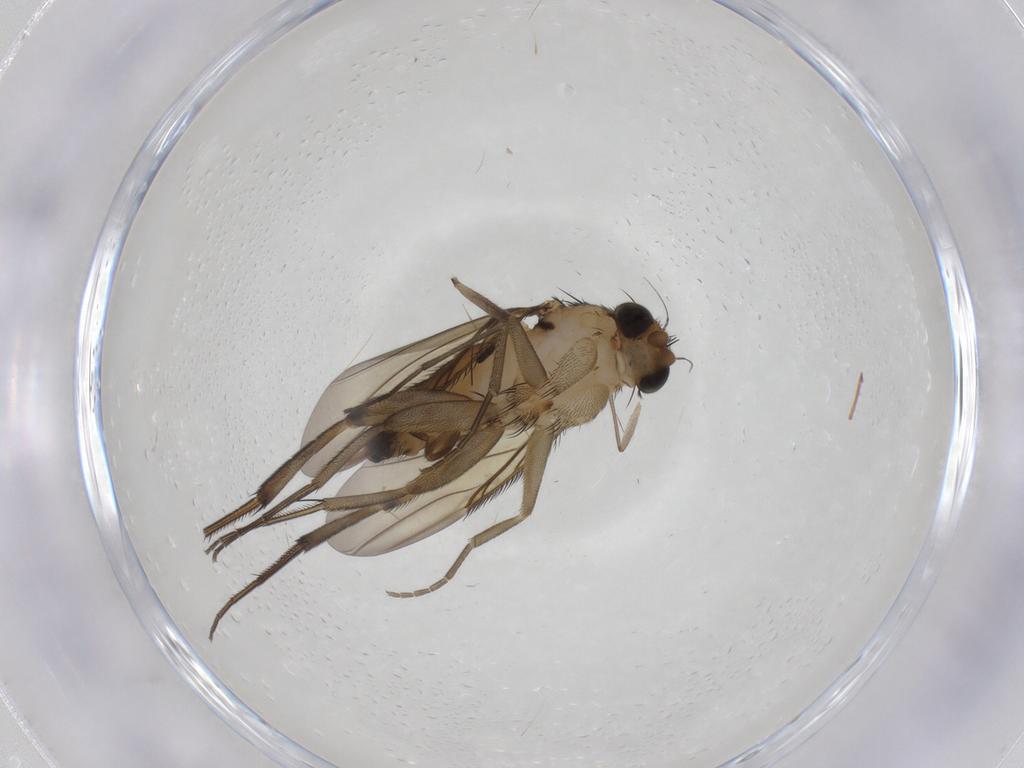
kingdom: Animalia
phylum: Arthropoda
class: Insecta
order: Diptera
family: Phoridae
